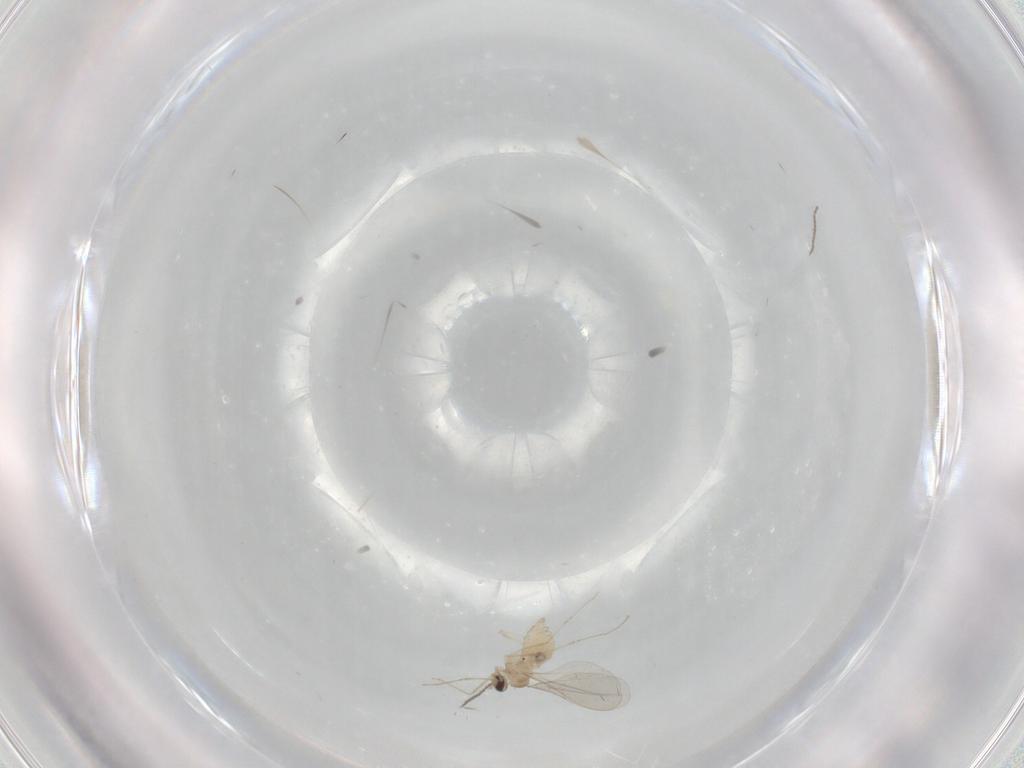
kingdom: Animalia
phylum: Arthropoda
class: Insecta
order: Diptera
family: Cecidomyiidae
